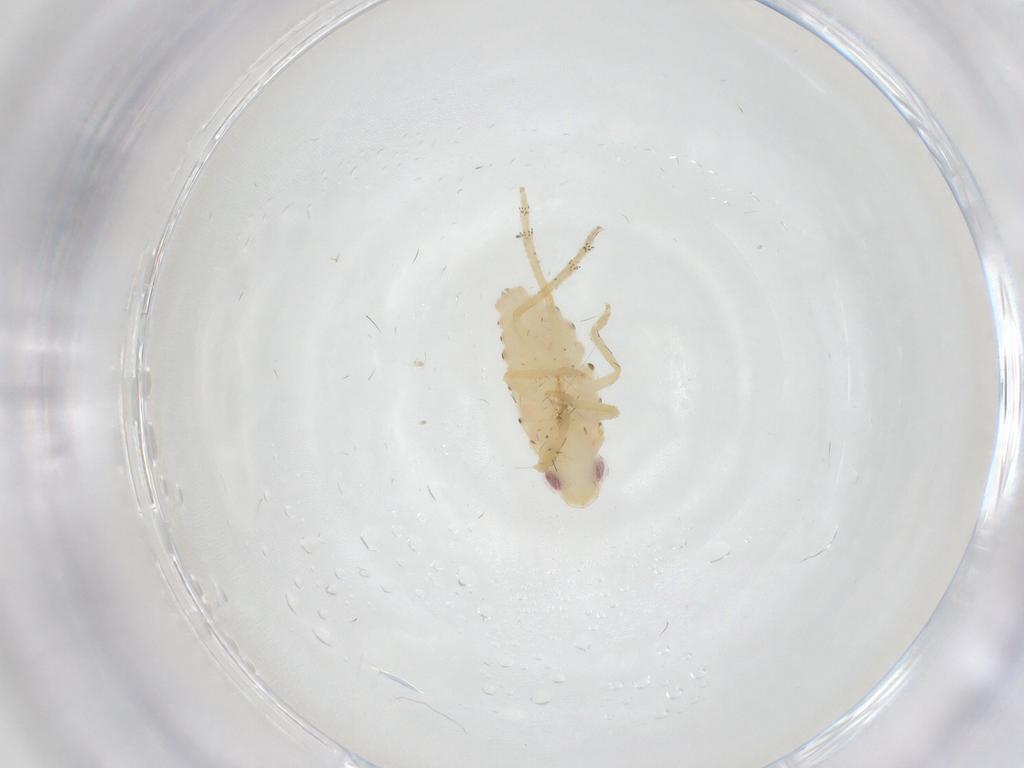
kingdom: Animalia
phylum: Arthropoda
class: Insecta
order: Hemiptera
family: Tropiduchidae
